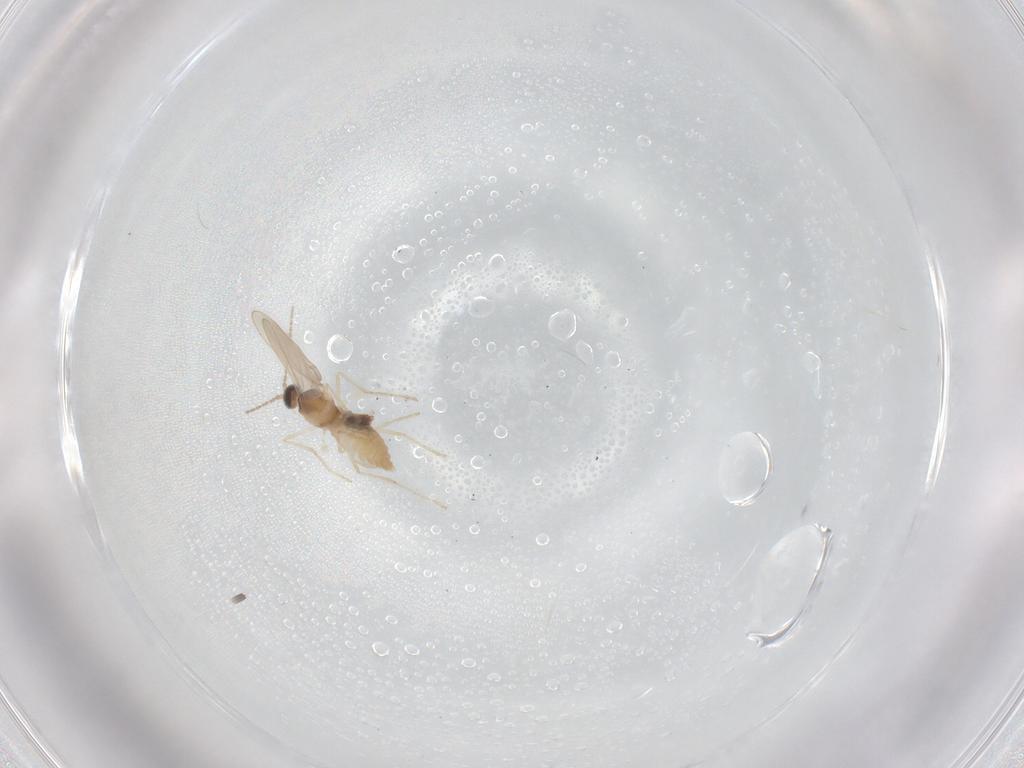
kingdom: Animalia
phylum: Arthropoda
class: Insecta
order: Diptera
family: Cecidomyiidae
